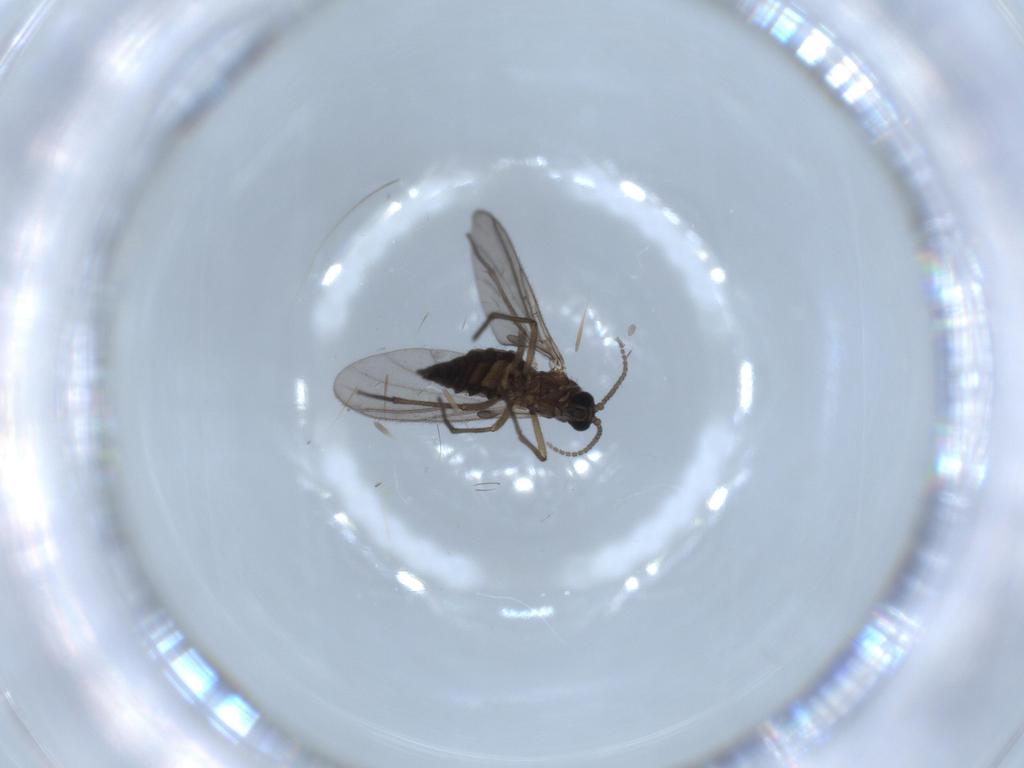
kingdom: Animalia
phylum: Arthropoda
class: Insecta
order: Diptera
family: Sciaridae
